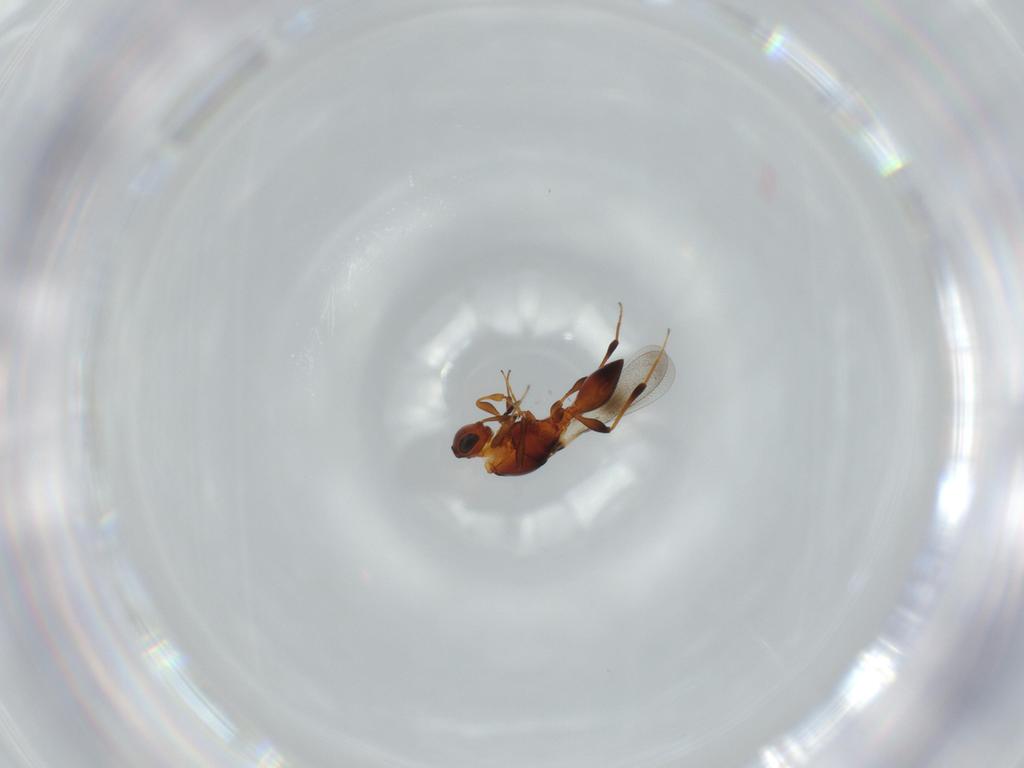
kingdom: Animalia
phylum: Arthropoda
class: Insecta
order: Hymenoptera
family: Platygastridae
